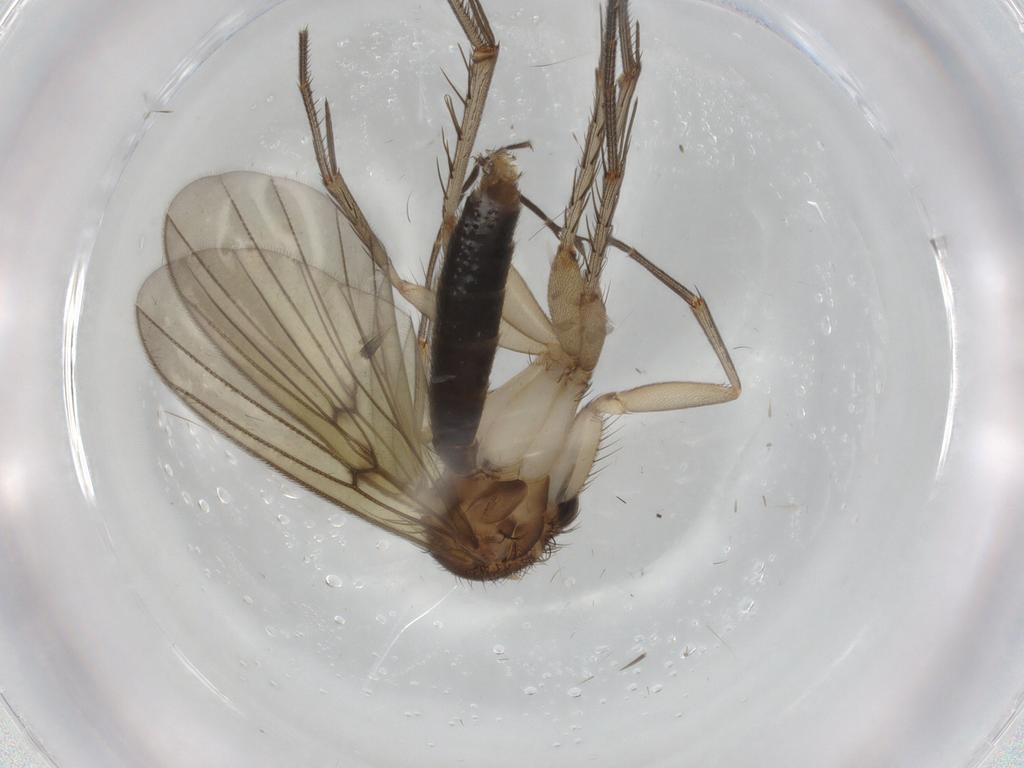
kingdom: Animalia
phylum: Arthropoda
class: Insecta
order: Diptera
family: Mycetophilidae
